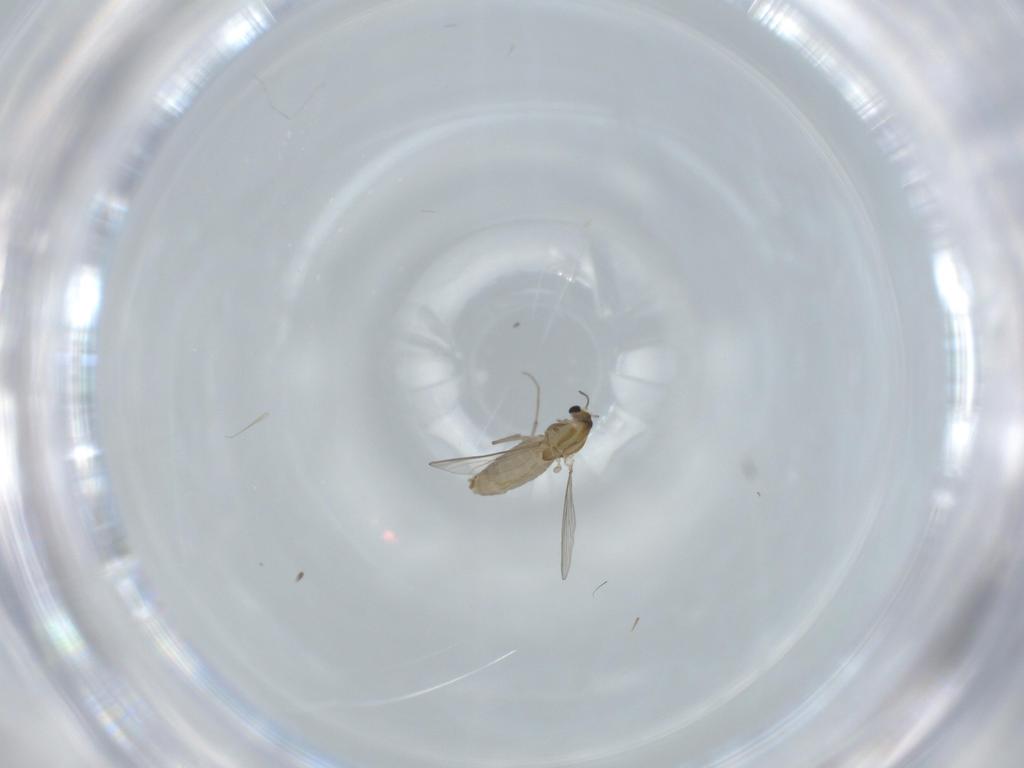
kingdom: Animalia
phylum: Arthropoda
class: Insecta
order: Diptera
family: Chironomidae
